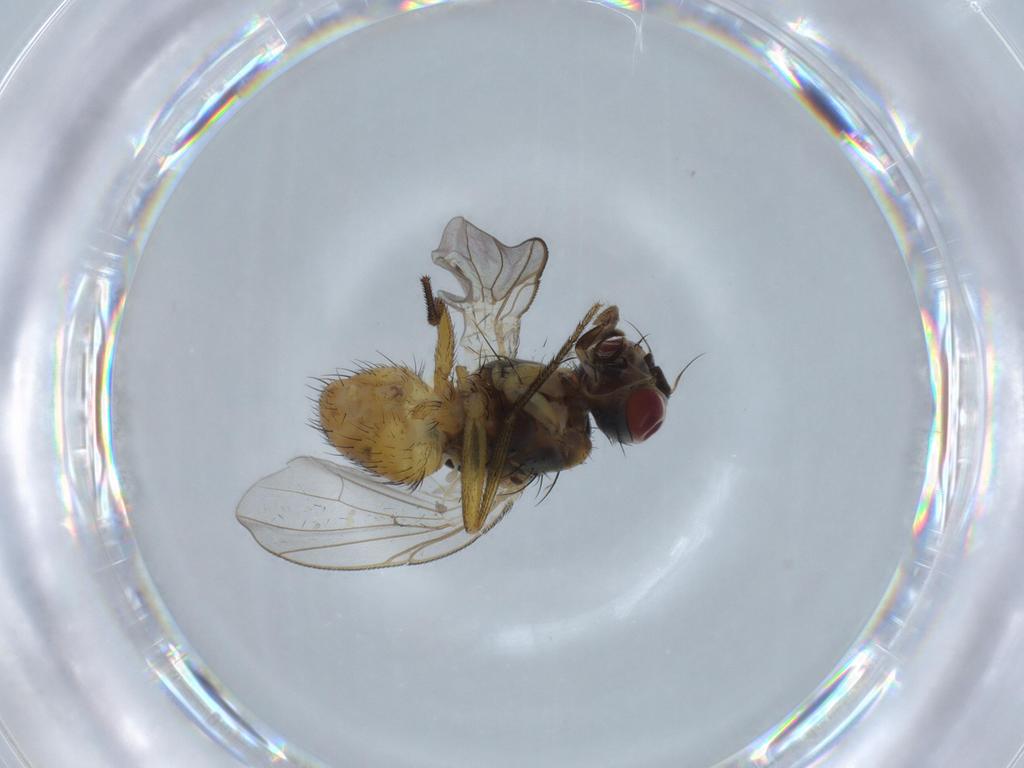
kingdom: Animalia
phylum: Arthropoda
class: Insecta
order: Diptera
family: Muscidae
